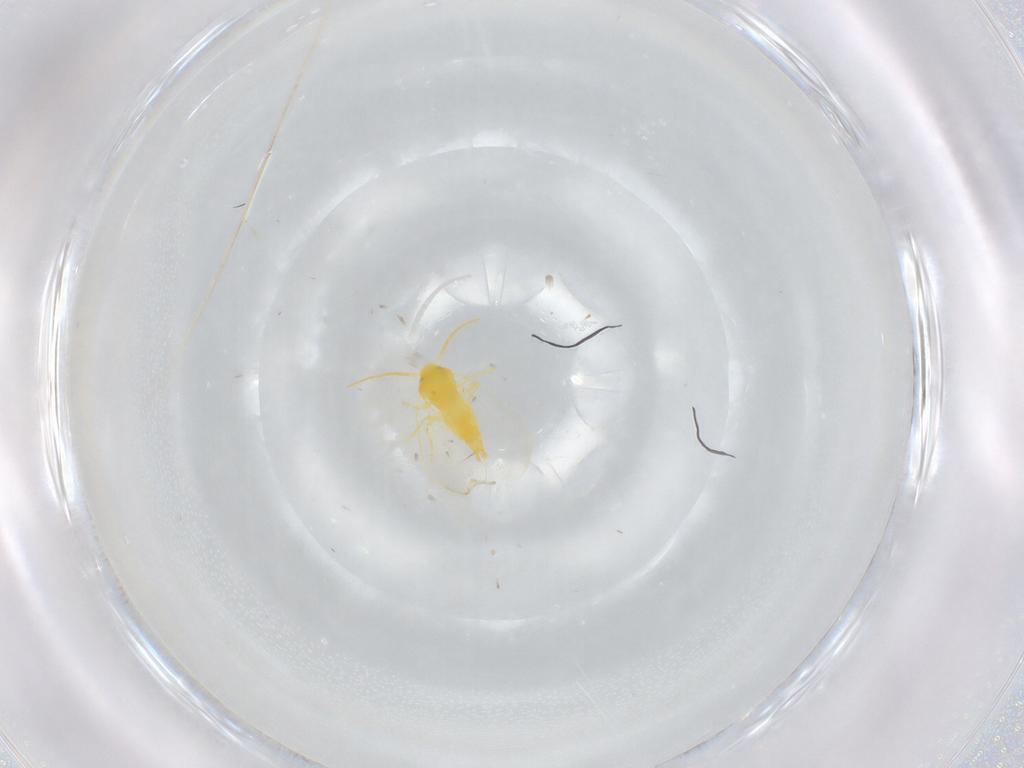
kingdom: Animalia
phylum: Arthropoda
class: Insecta
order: Hemiptera
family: Aleyrodidae
